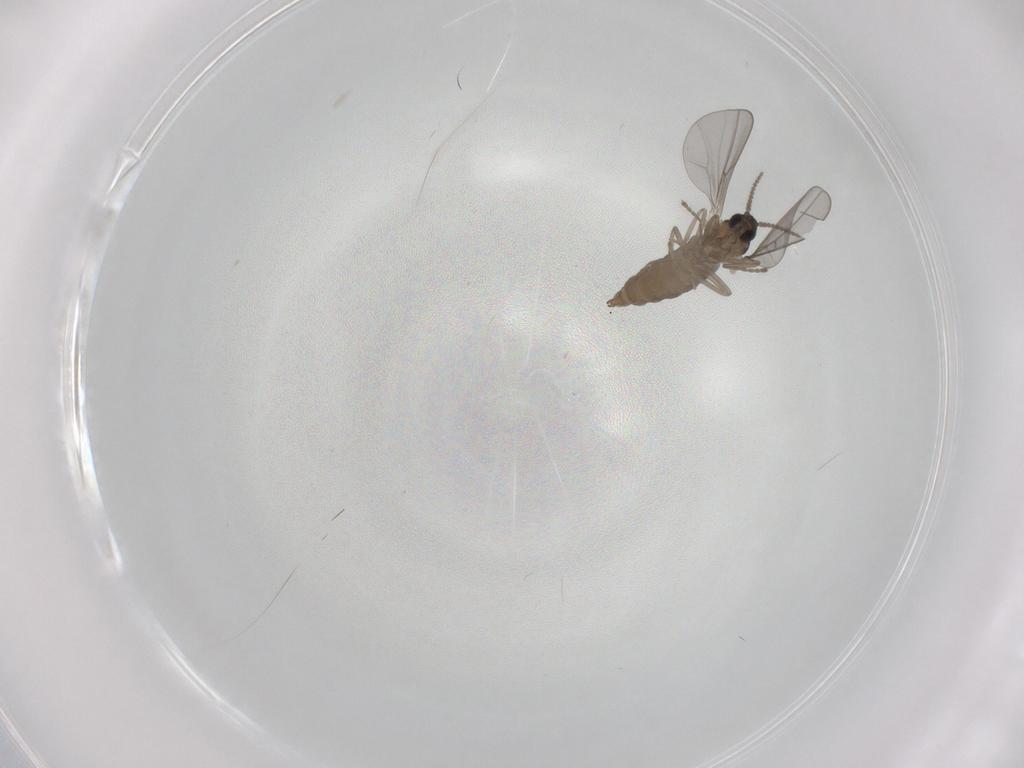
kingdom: Animalia
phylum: Arthropoda
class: Insecta
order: Diptera
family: Cecidomyiidae
